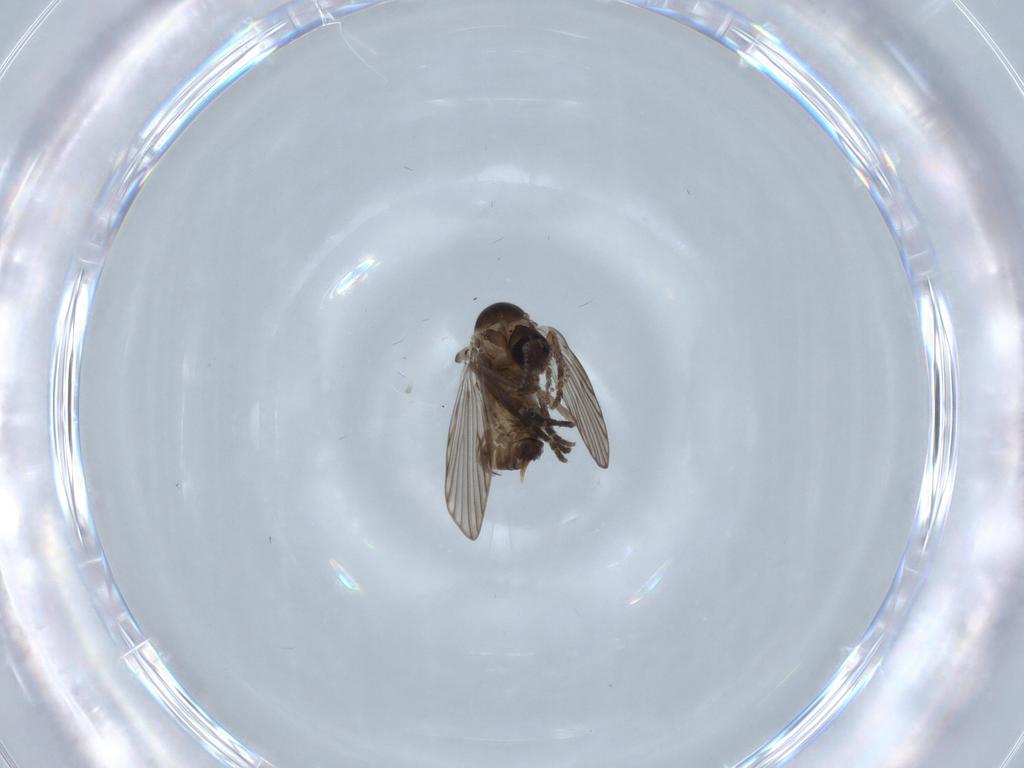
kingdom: Animalia
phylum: Arthropoda
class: Insecta
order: Diptera
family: Psychodidae
